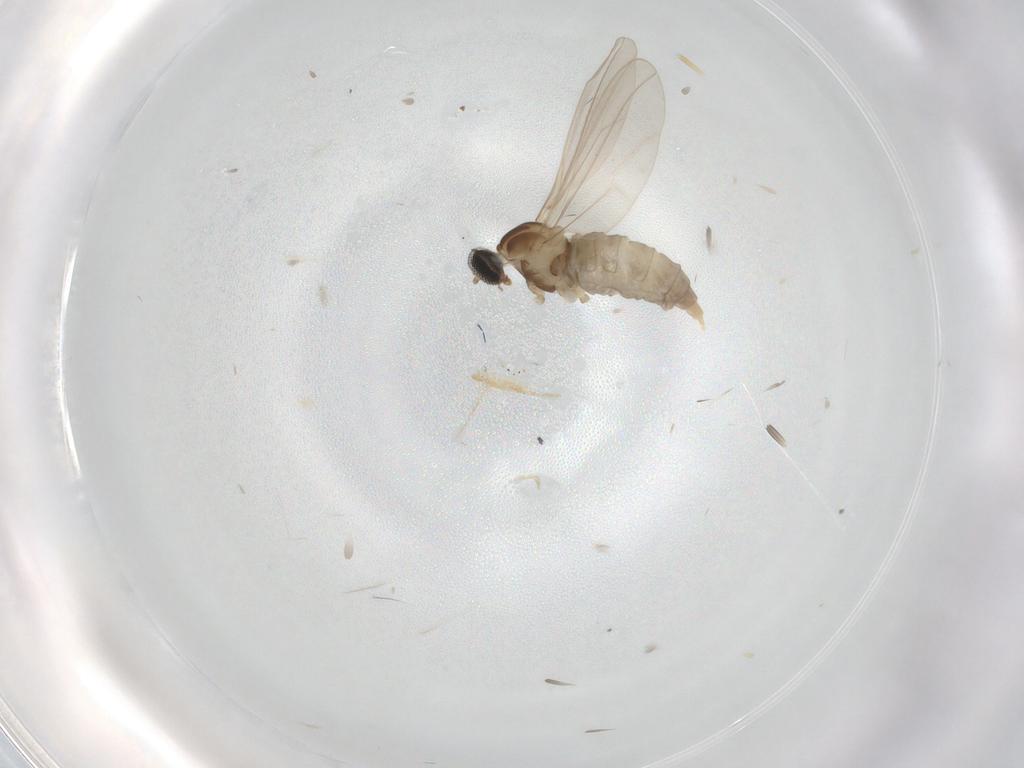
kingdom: Animalia
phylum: Arthropoda
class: Insecta
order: Diptera
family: Cecidomyiidae
